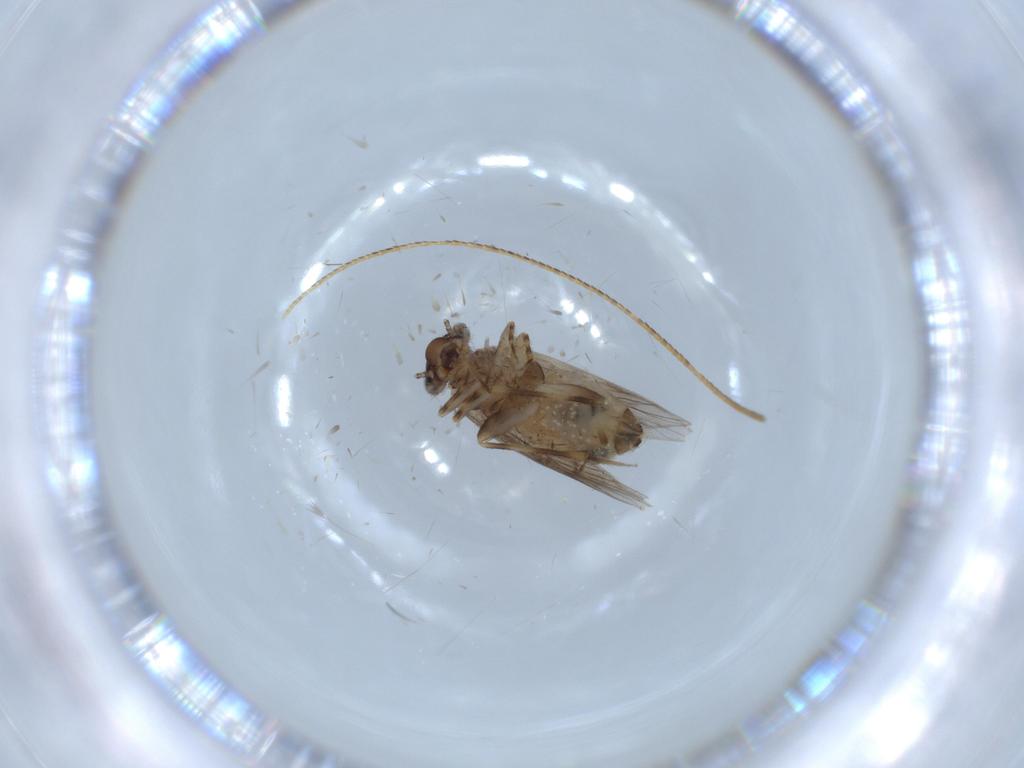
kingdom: Animalia
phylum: Arthropoda
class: Insecta
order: Psocodea
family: Lepidopsocidae
